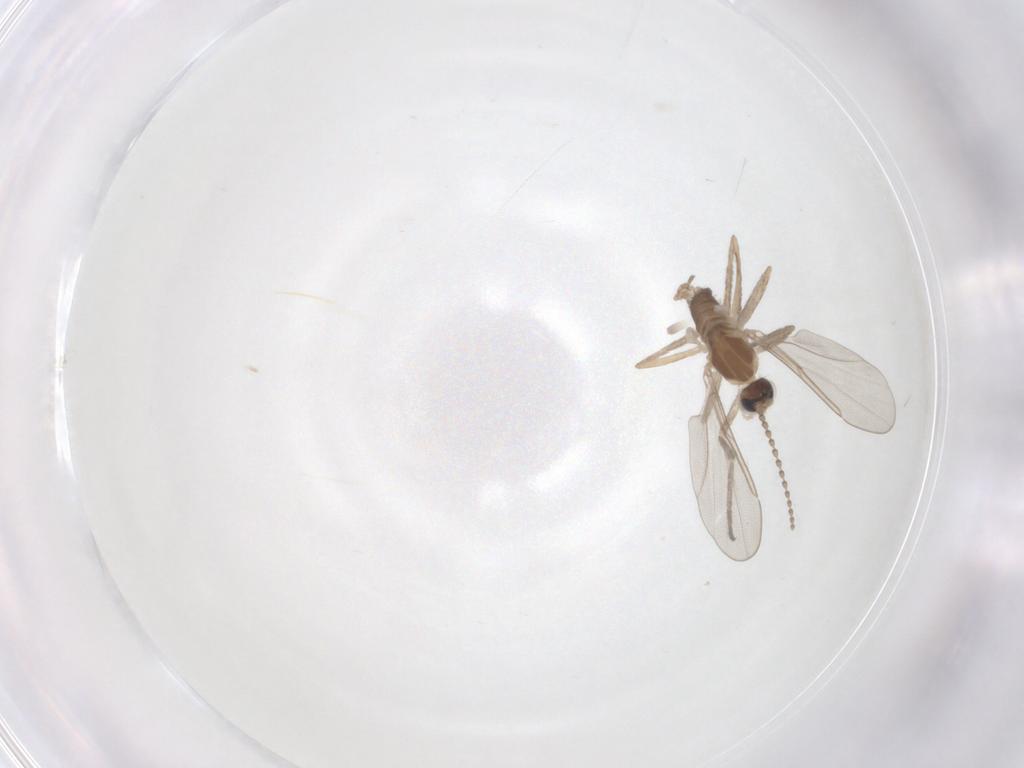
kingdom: Animalia
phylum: Arthropoda
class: Insecta
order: Diptera
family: Cecidomyiidae
